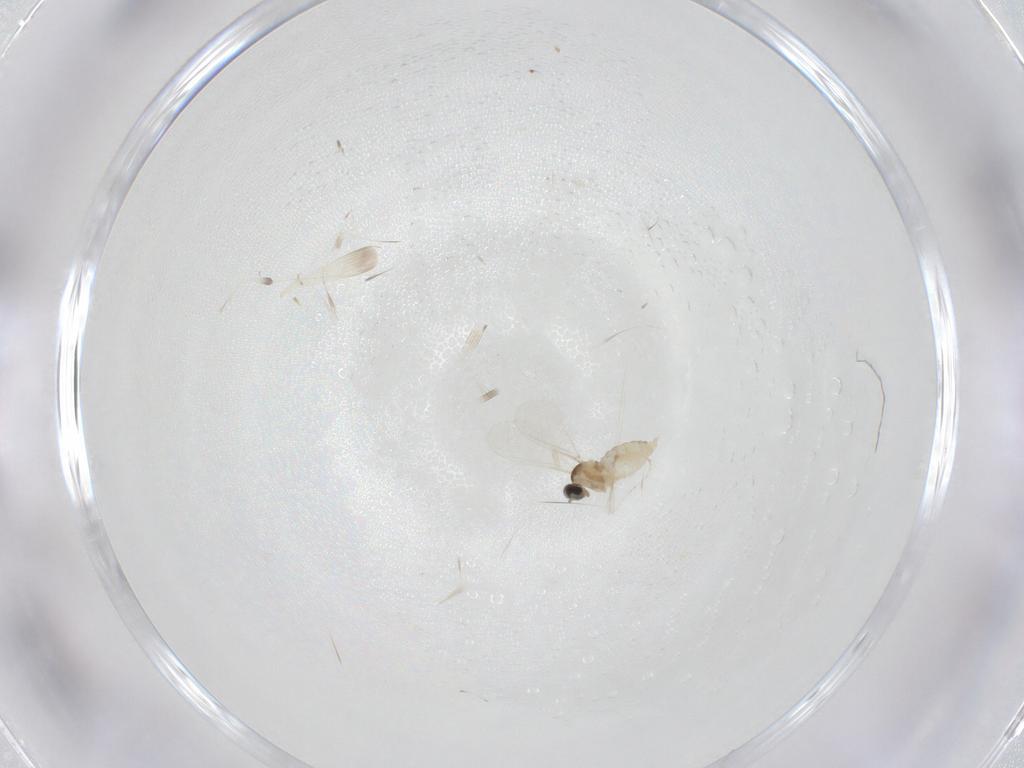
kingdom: Animalia
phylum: Arthropoda
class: Insecta
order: Diptera
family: Cecidomyiidae
